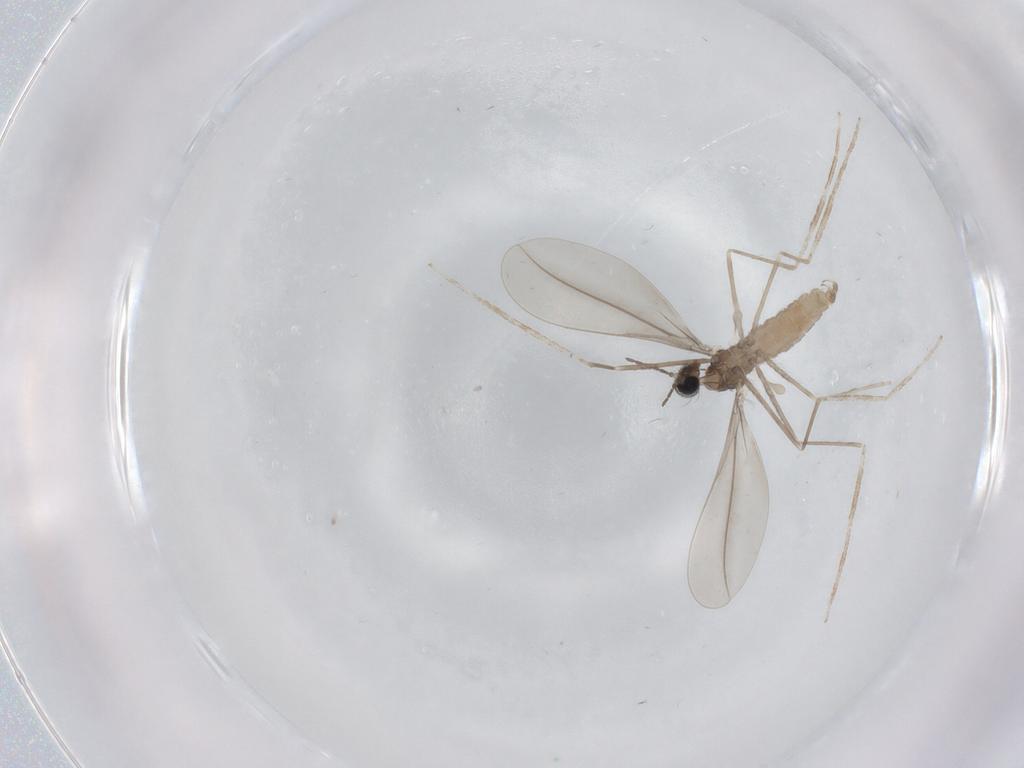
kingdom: Animalia
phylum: Arthropoda
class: Insecta
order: Diptera
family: Cecidomyiidae
